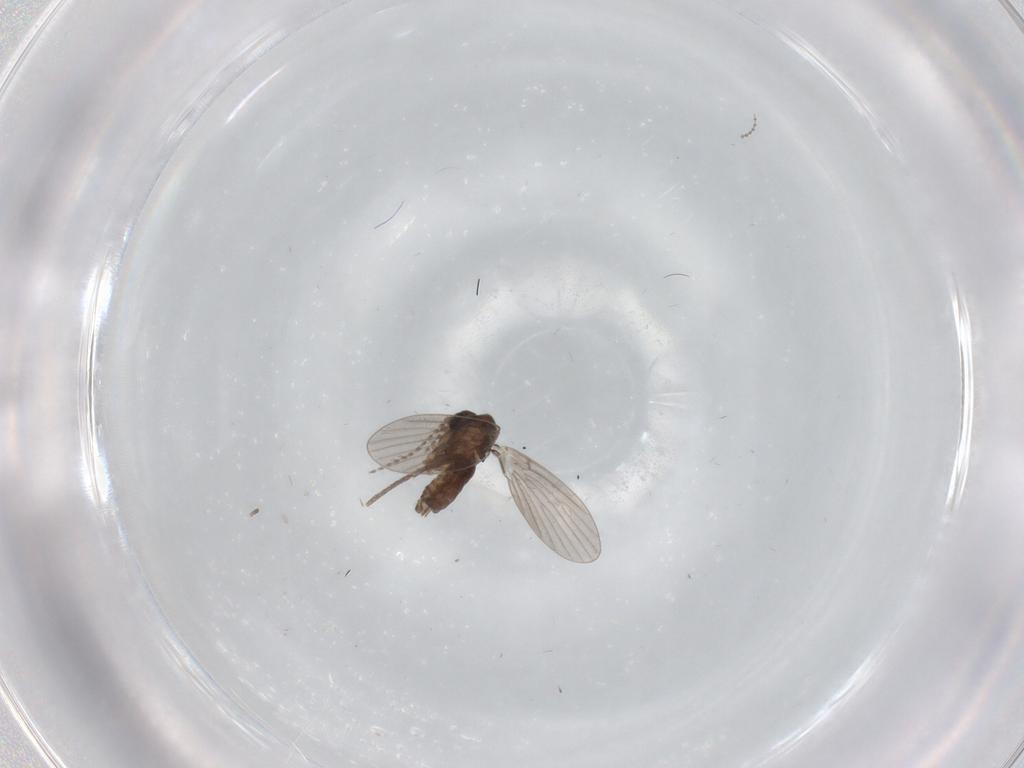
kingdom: Animalia
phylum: Arthropoda
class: Insecta
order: Diptera
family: Cecidomyiidae
